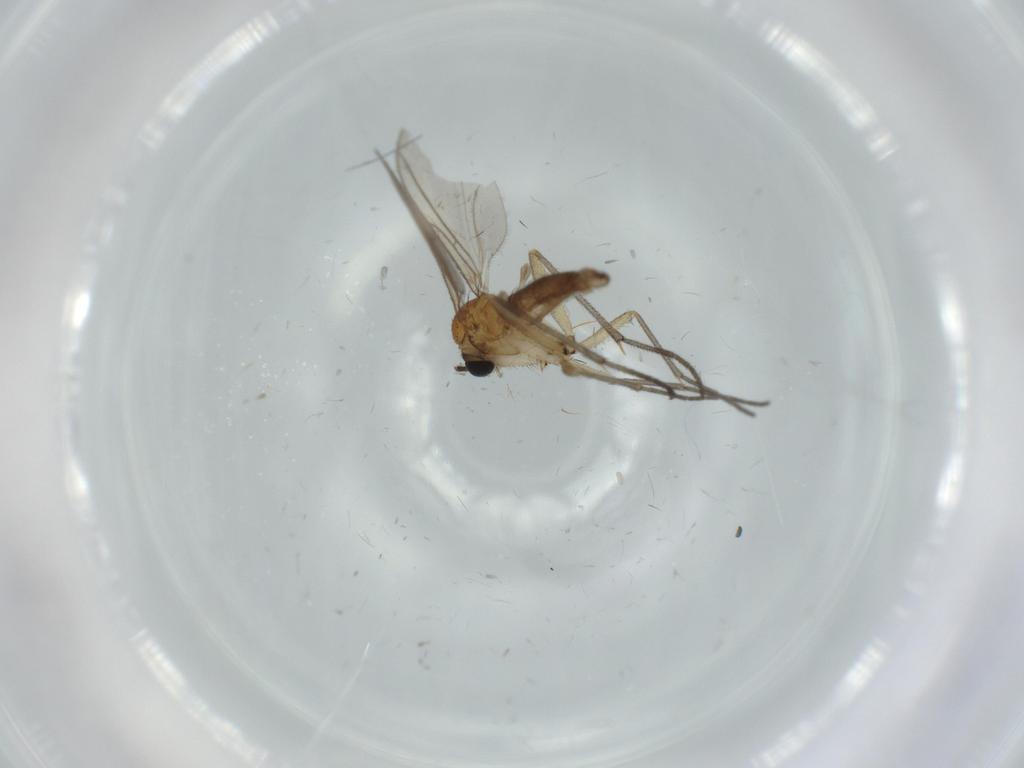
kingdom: Animalia
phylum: Arthropoda
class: Insecta
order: Diptera
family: Sciaridae
